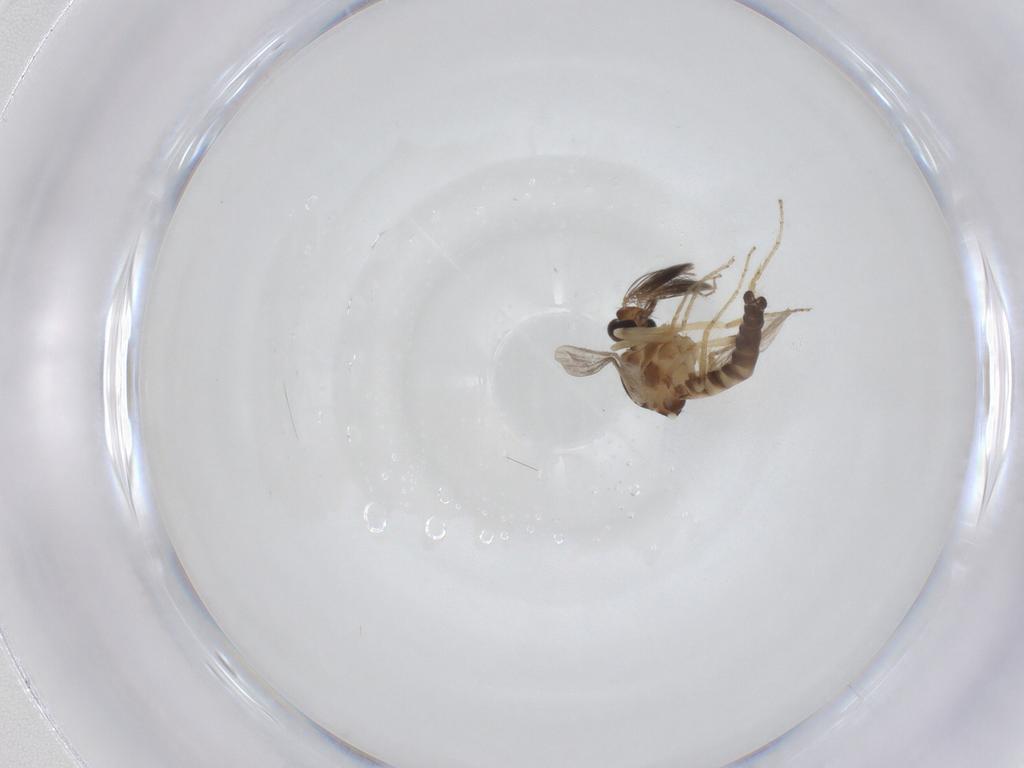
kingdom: Animalia
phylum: Arthropoda
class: Insecta
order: Diptera
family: Ceratopogonidae
